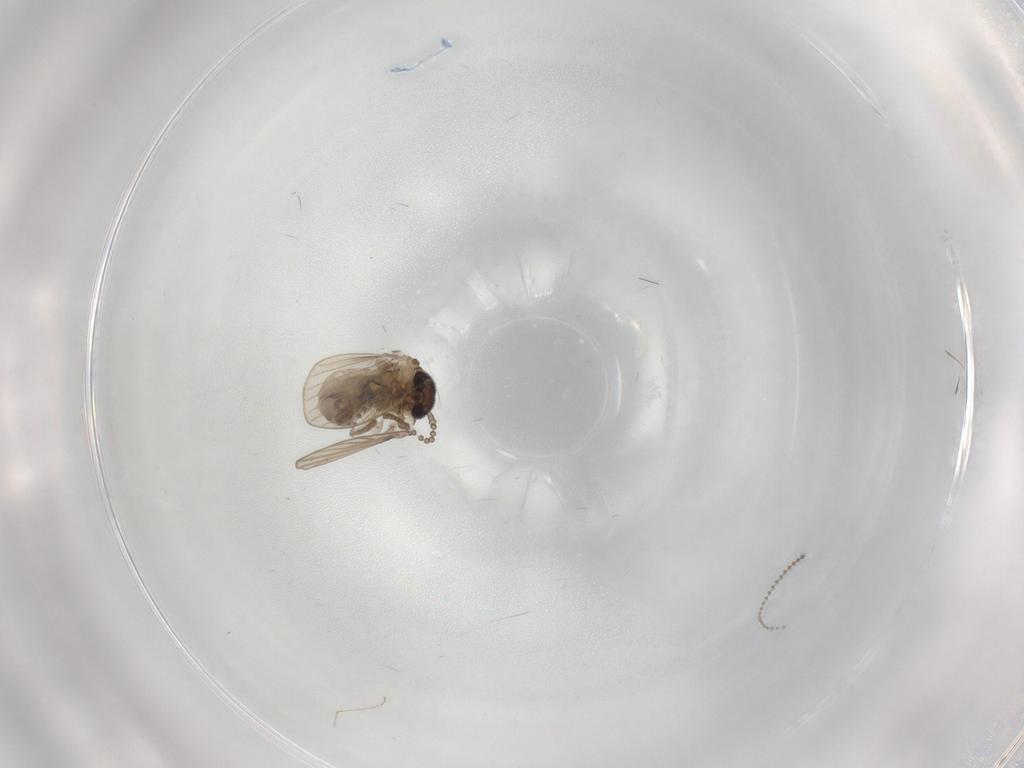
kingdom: Animalia
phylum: Arthropoda
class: Insecta
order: Diptera
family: Psychodidae
